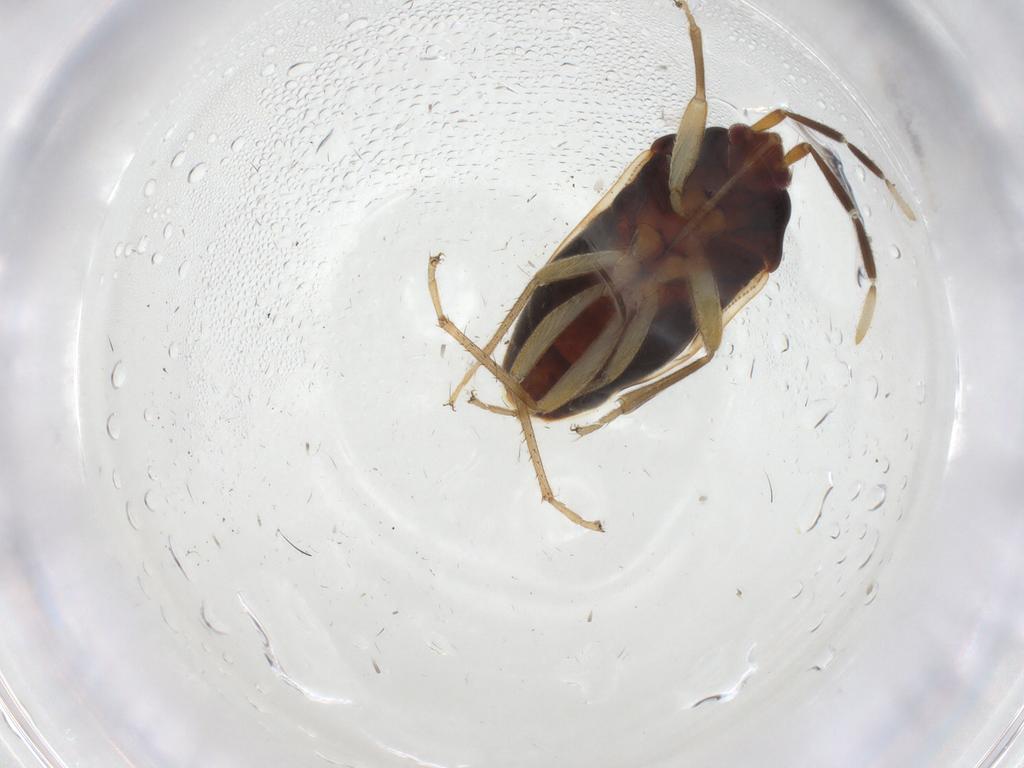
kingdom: Animalia
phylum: Arthropoda
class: Insecta
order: Hemiptera
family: Rhyparochromidae
